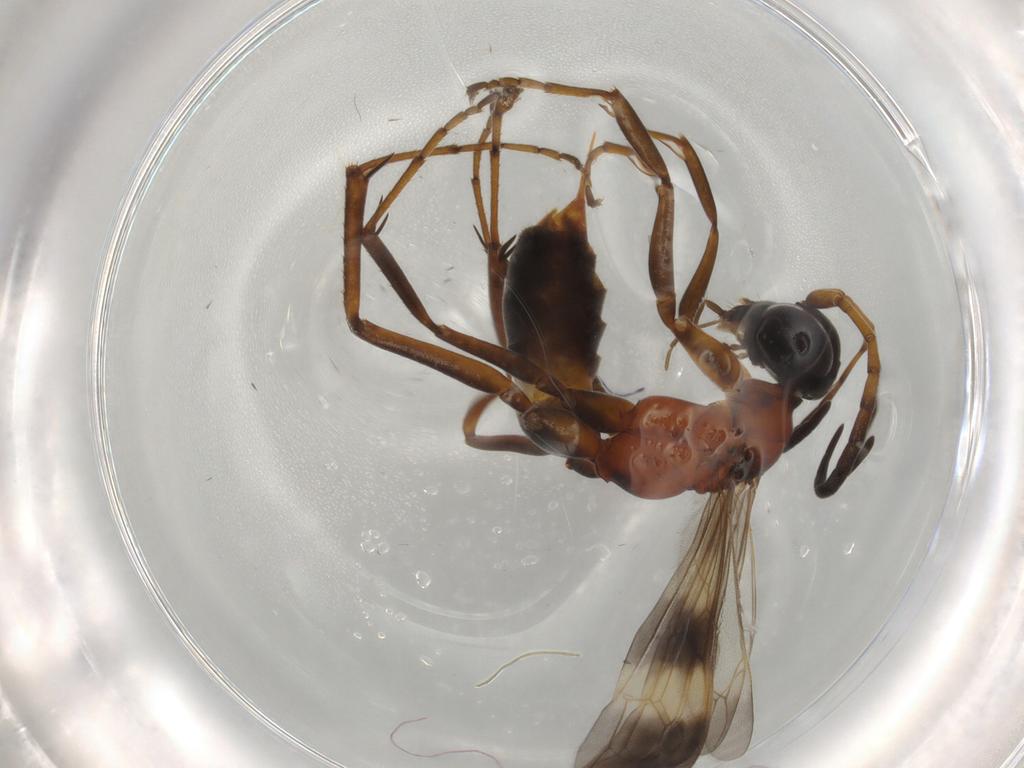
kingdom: Animalia
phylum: Arthropoda
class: Insecta
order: Hymenoptera
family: Pompilidae
